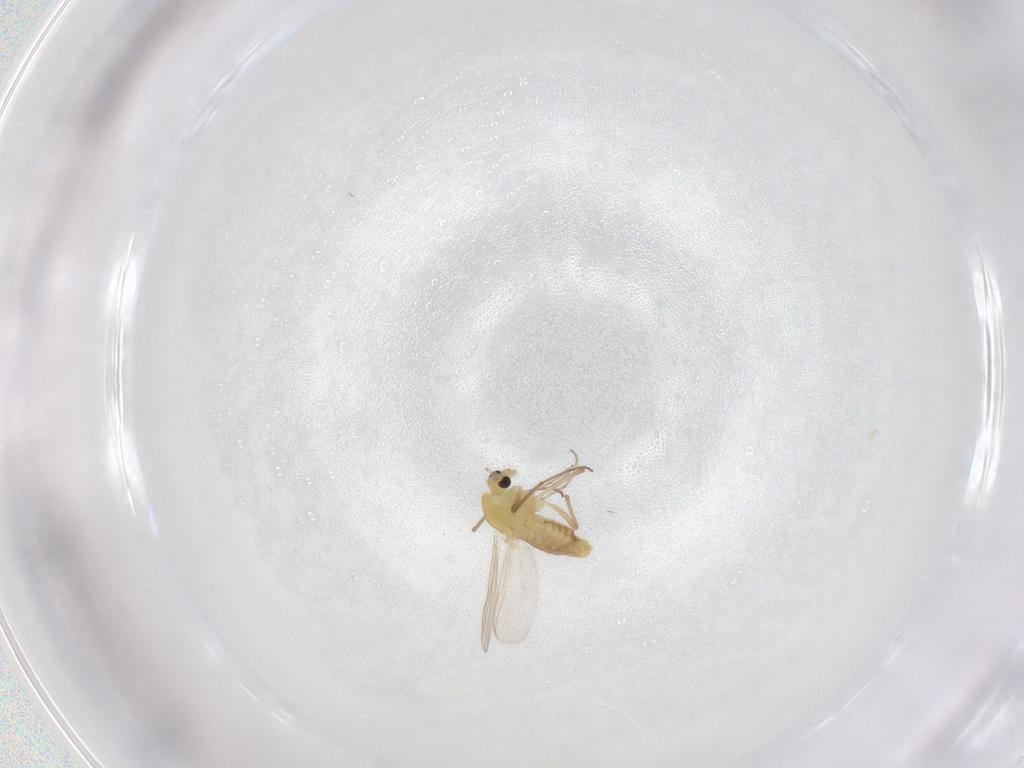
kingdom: Animalia
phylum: Arthropoda
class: Insecta
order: Diptera
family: Chironomidae
